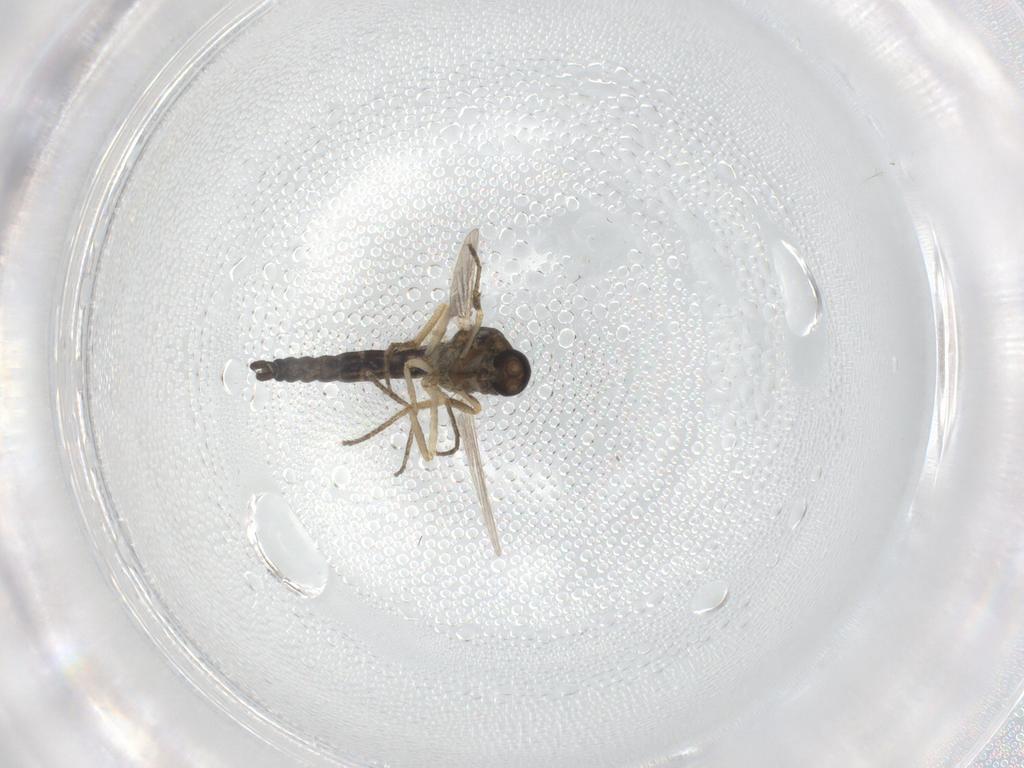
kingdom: Animalia
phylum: Arthropoda
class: Insecta
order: Diptera
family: Ceratopogonidae
